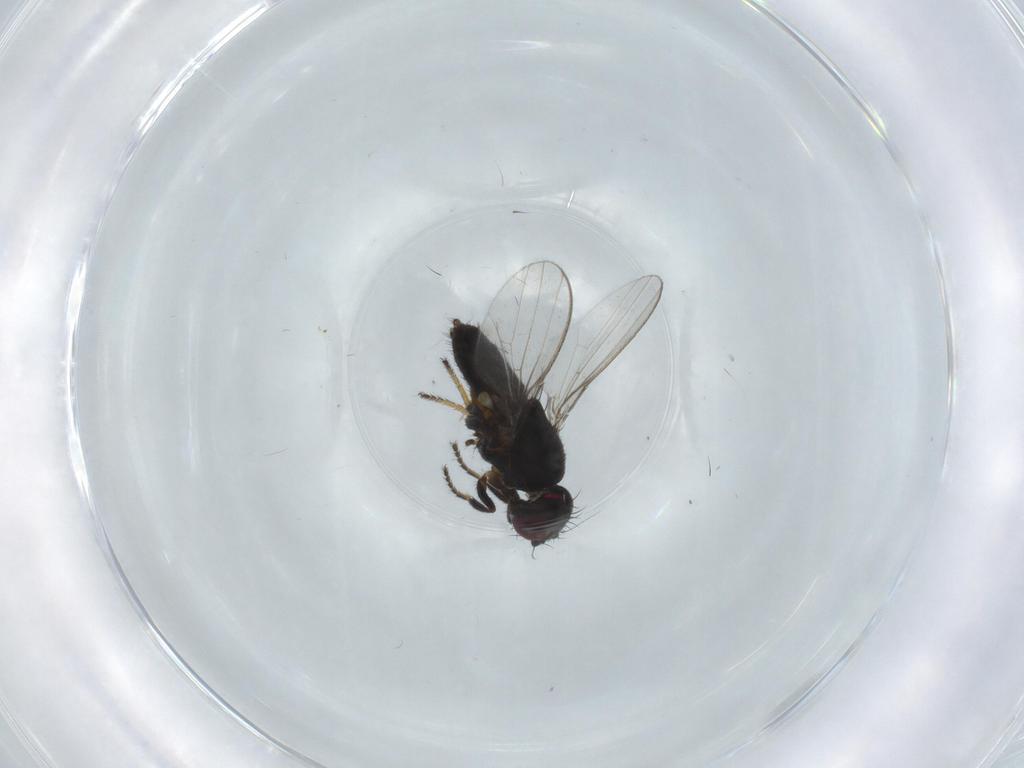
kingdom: Animalia
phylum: Arthropoda
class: Insecta
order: Diptera
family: Milichiidae
